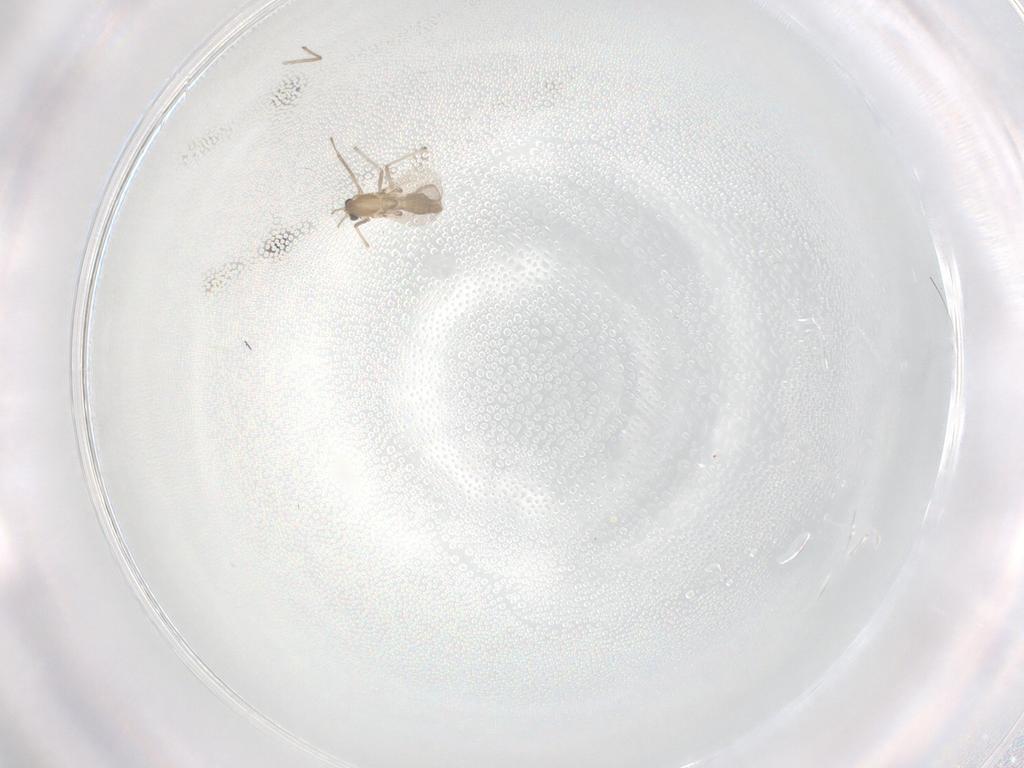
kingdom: Animalia
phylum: Arthropoda
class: Insecta
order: Diptera
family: Chironomidae
